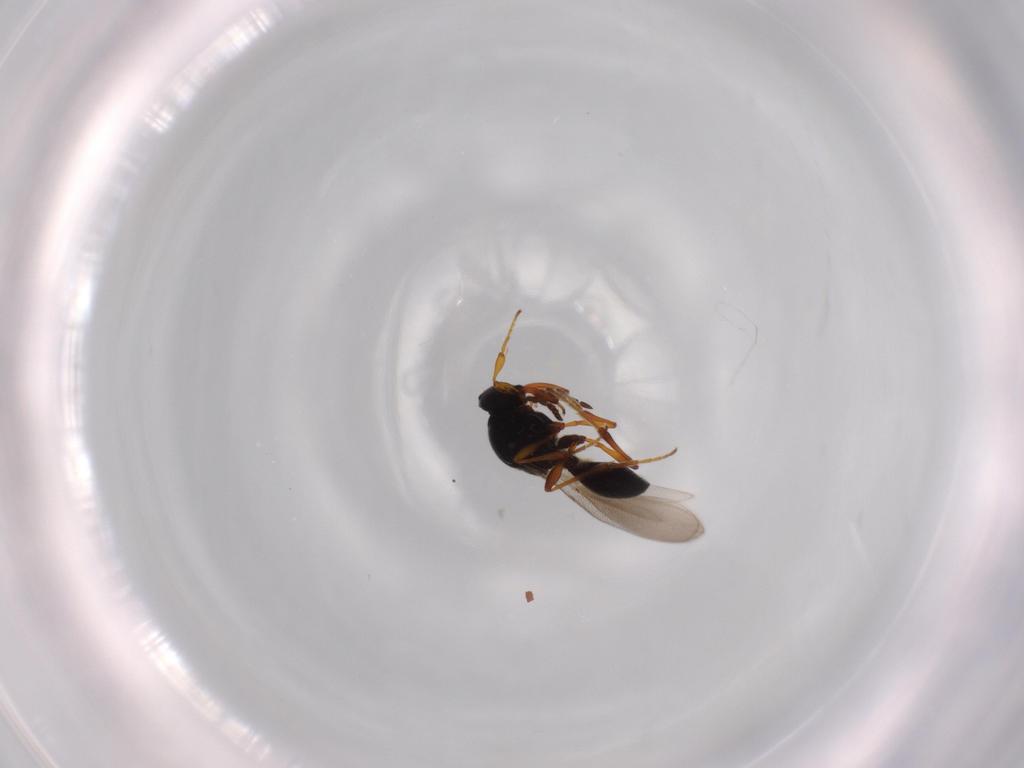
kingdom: Animalia
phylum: Arthropoda
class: Insecta
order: Hymenoptera
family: Platygastridae
